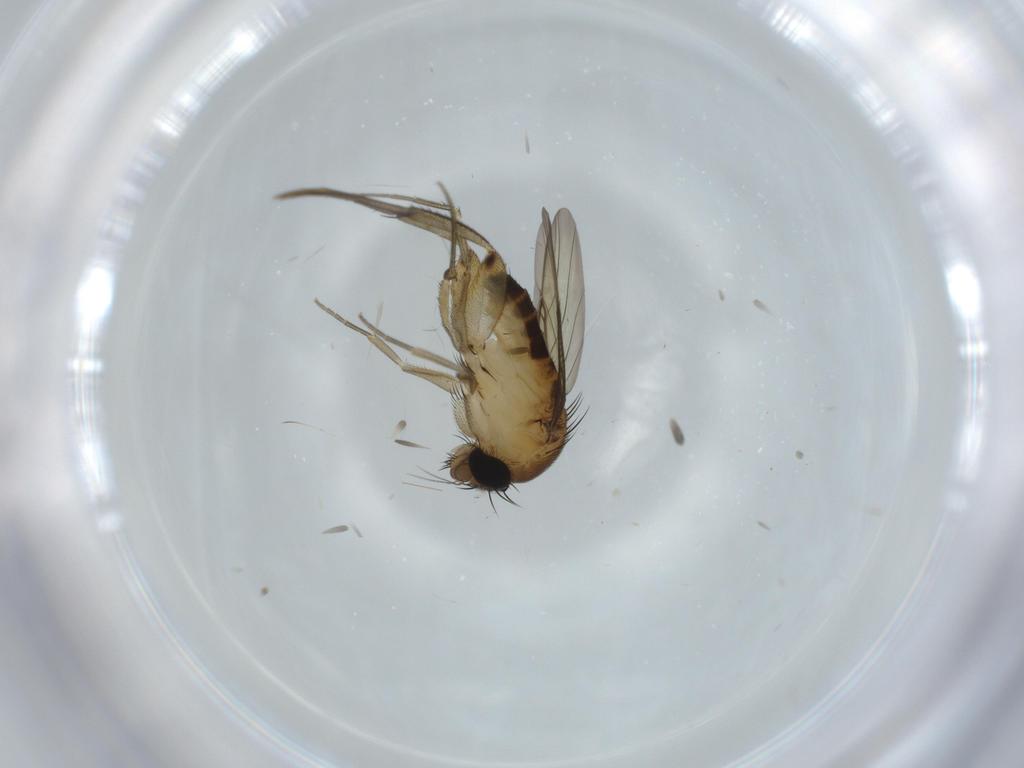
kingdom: Animalia
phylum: Arthropoda
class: Insecta
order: Diptera
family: Phoridae
